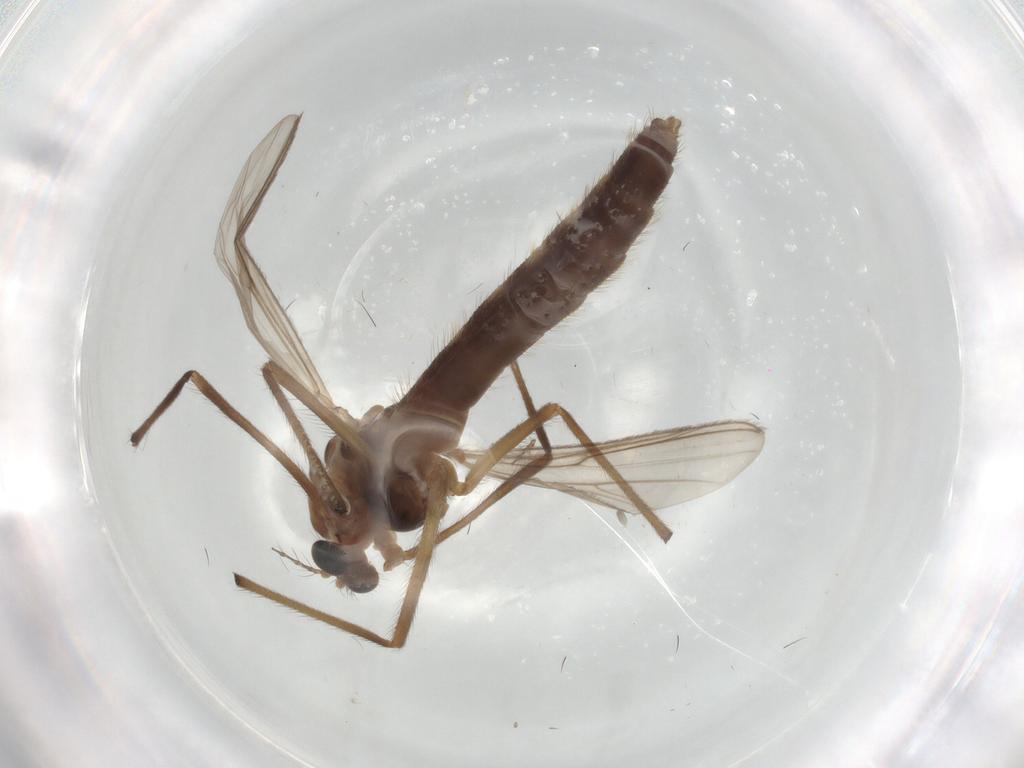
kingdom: Animalia
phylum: Arthropoda
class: Insecta
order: Diptera
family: Chironomidae
